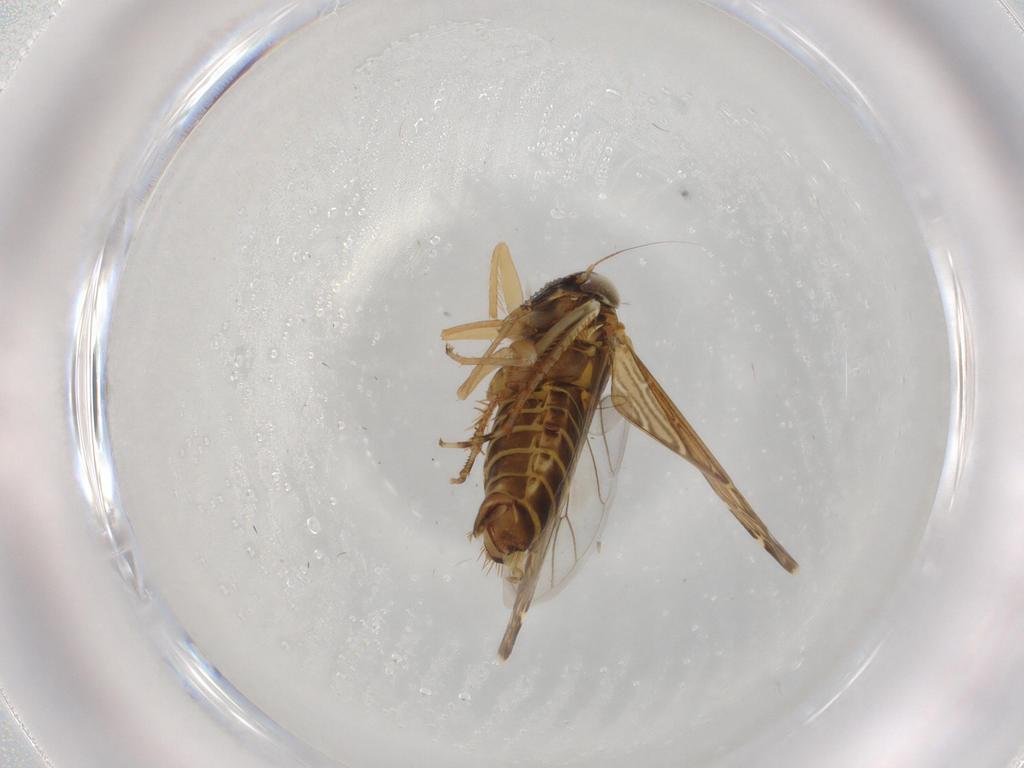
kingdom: Animalia
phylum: Arthropoda
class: Insecta
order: Hemiptera
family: Cicadellidae
